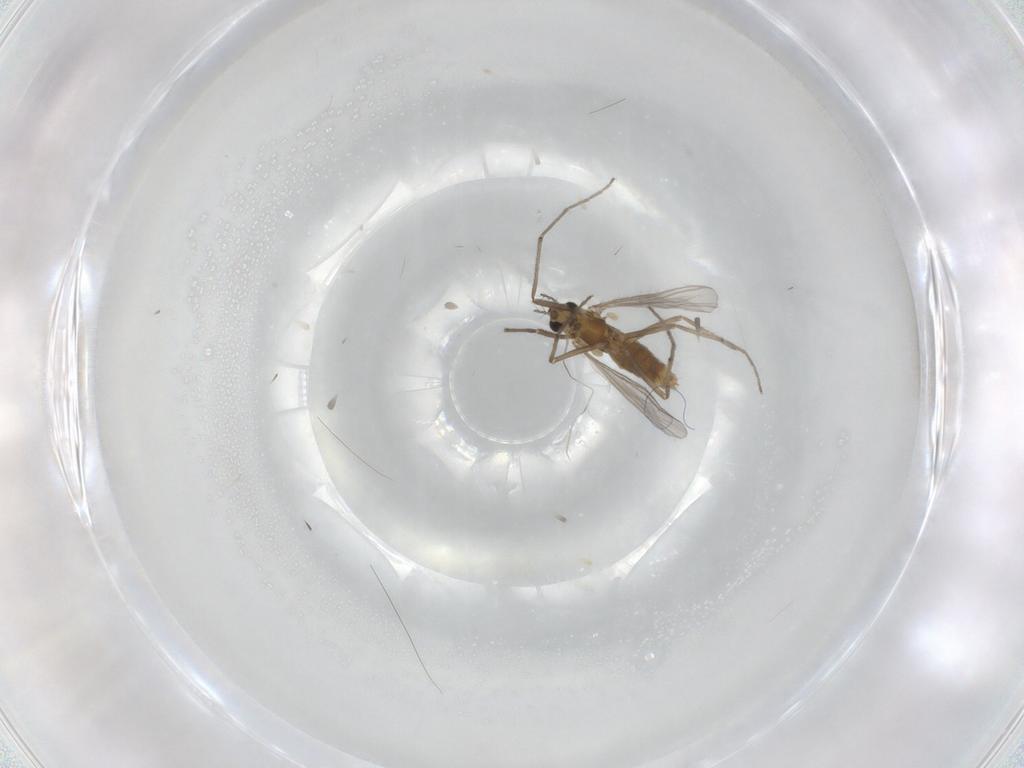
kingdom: Animalia
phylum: Arthropoda
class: Insecta
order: Diptera
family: Chironomidae
